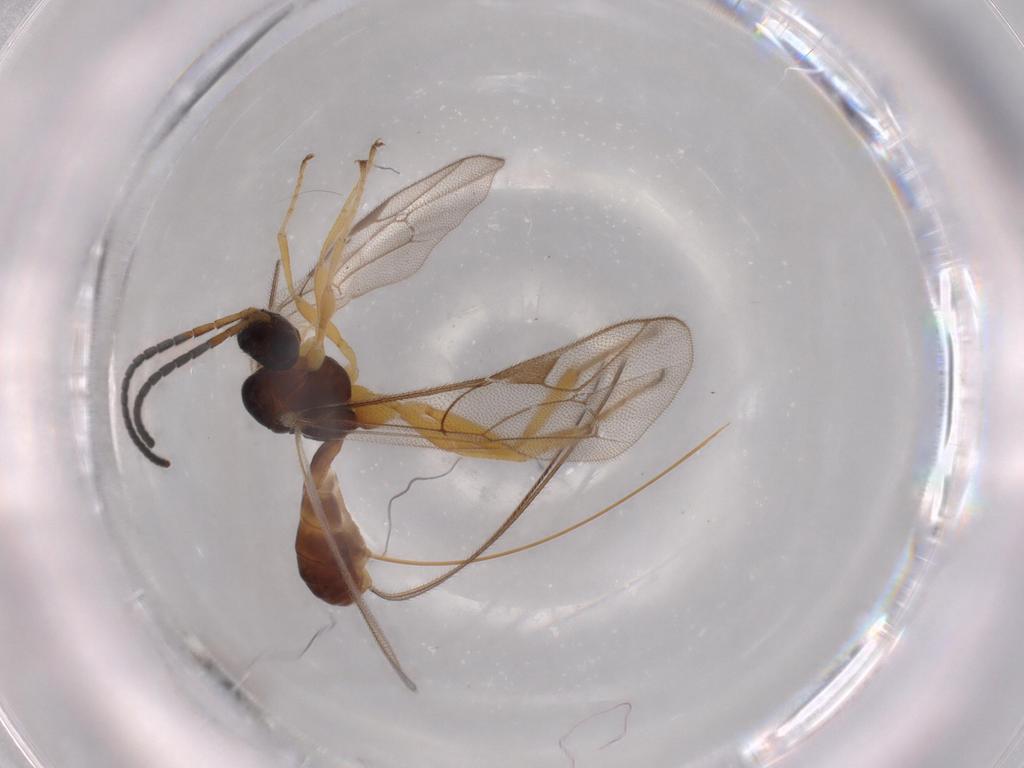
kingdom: Animalia
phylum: Arthropoda
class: Insecta
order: Hymenoptera
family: Ichneumonidae
